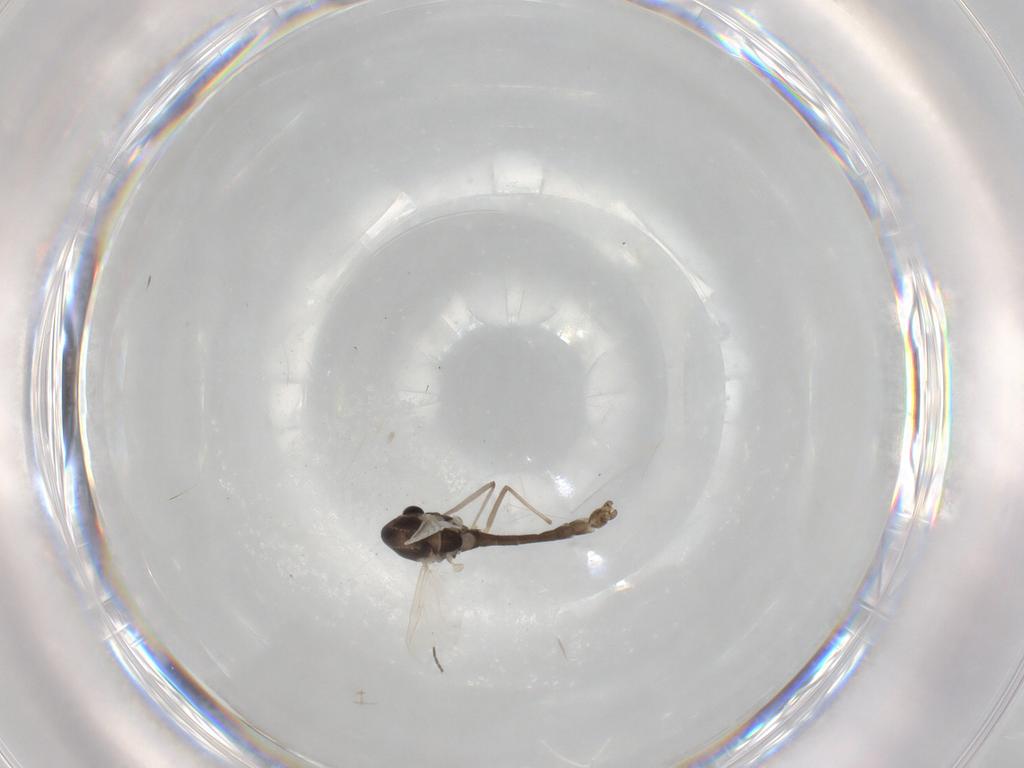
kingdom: Animalia
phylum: Arthropoda
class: Insecta
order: Diptera
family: Chironomidae
